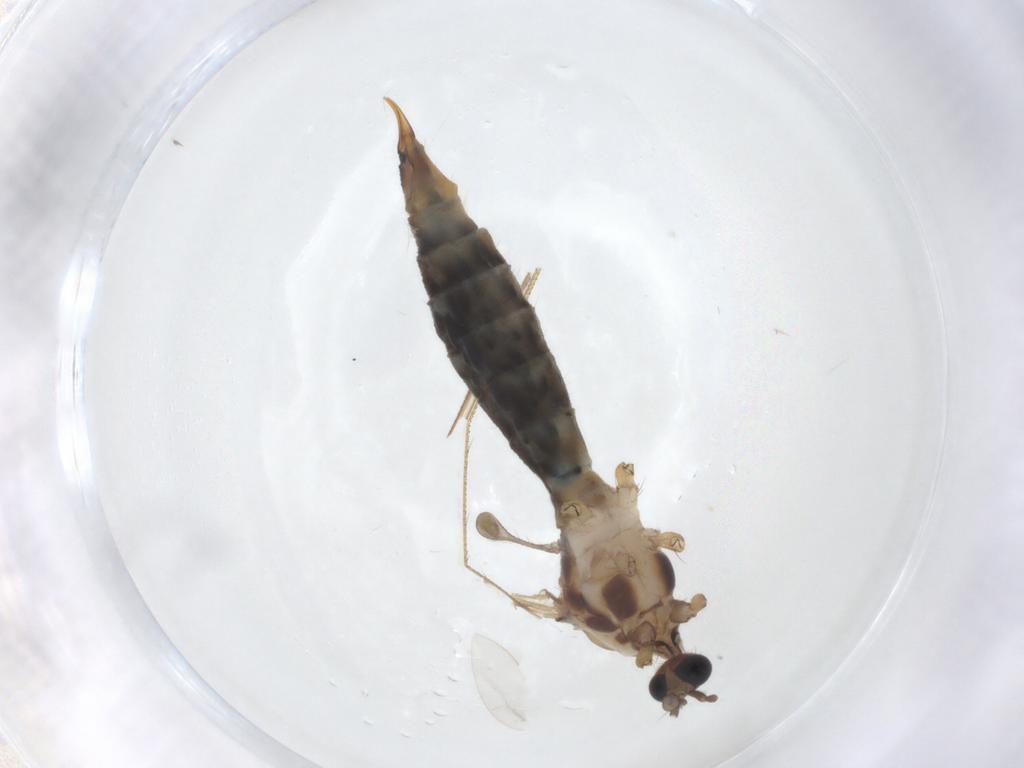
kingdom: Animalia
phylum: Arthropoda
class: Insecta
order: Diptera
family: Limoniidae
